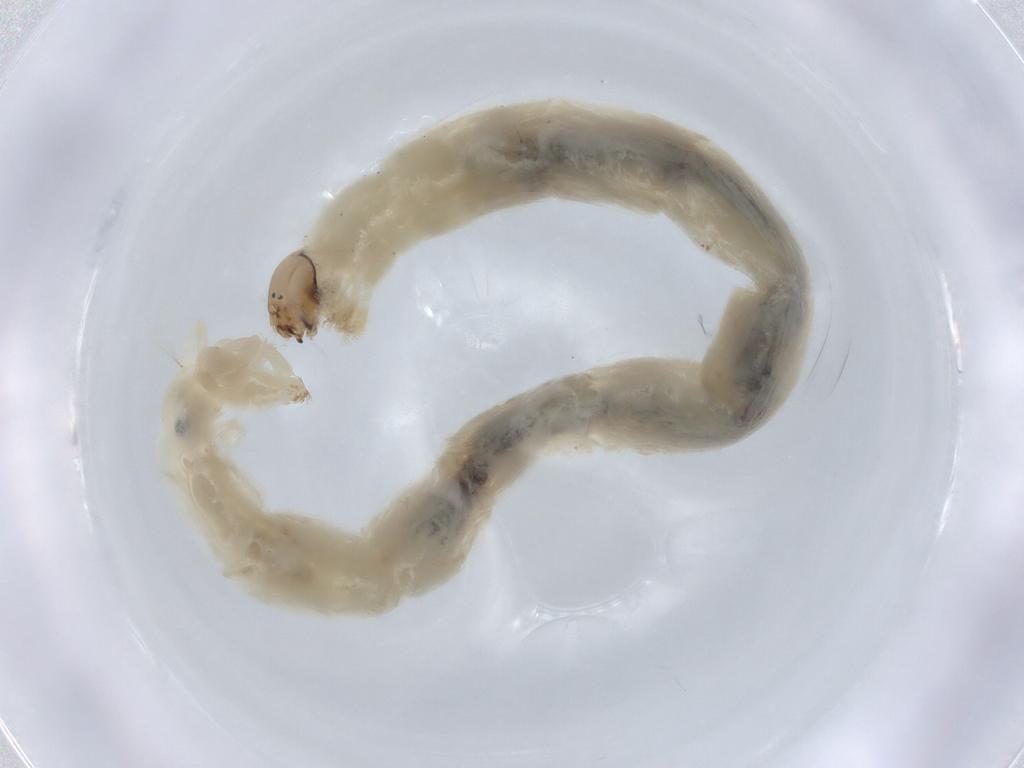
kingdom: Animalia
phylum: Arthropoda
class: Insecta
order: Diptera
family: Chironomidae
